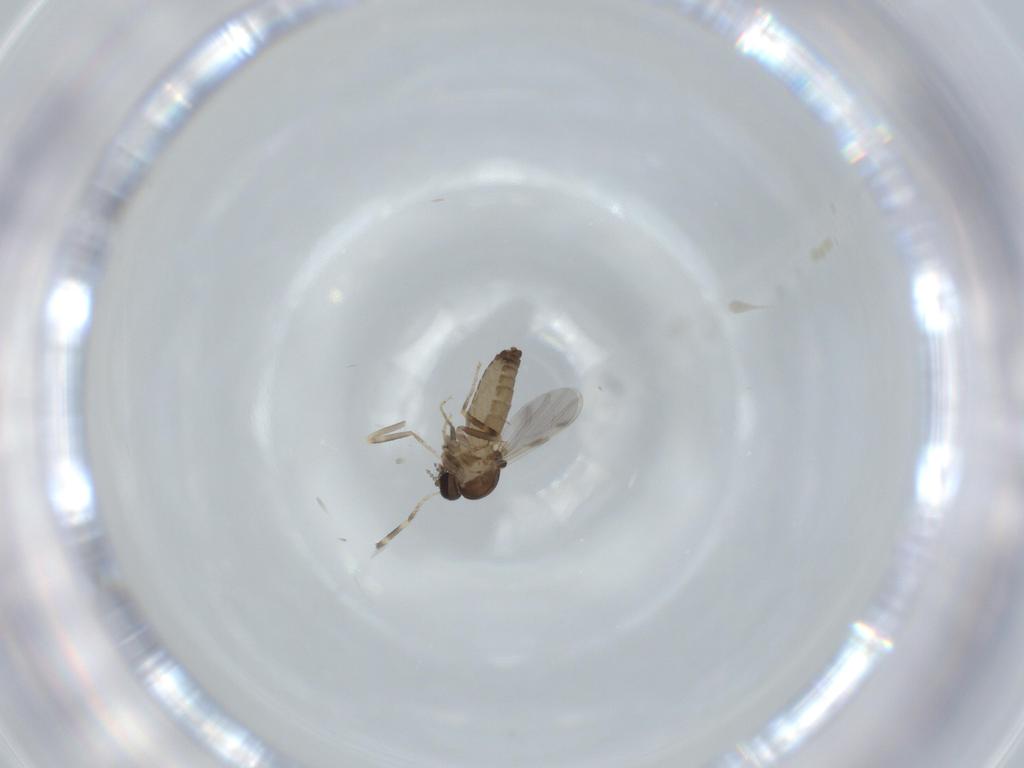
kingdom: Animalia
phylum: Arthropoda
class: Insecta
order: Diptera
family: Ceratopogonidae
